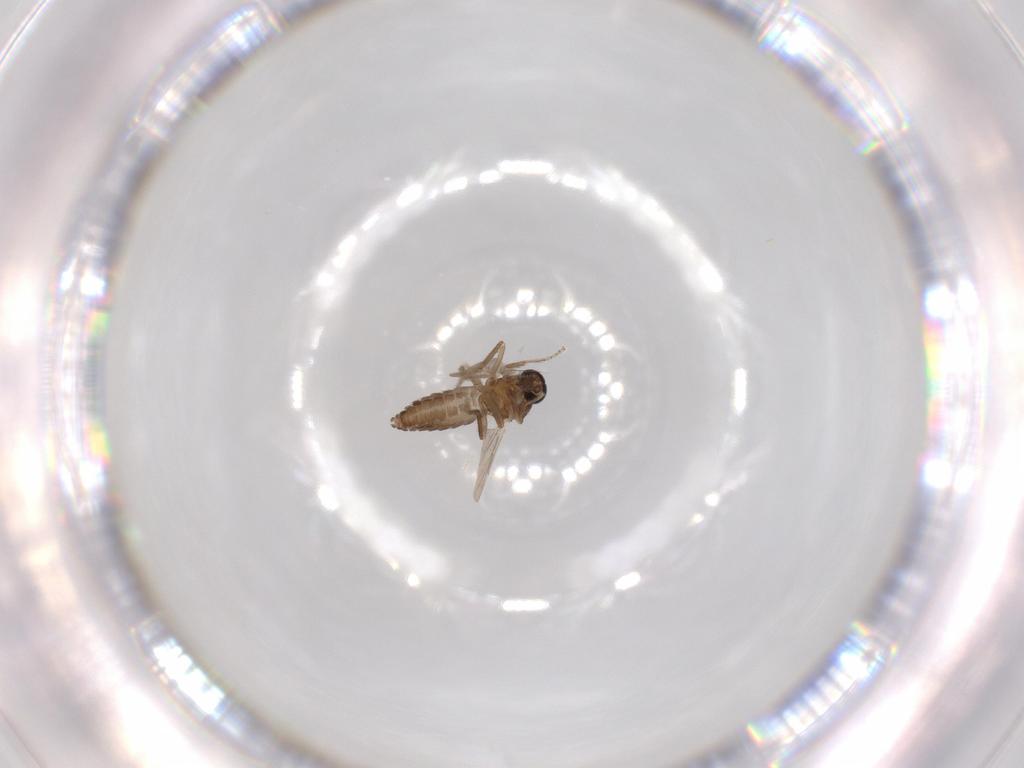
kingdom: Animalia
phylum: Arthropoda
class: Insecta
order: Diptera
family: Ceratopogonidae
